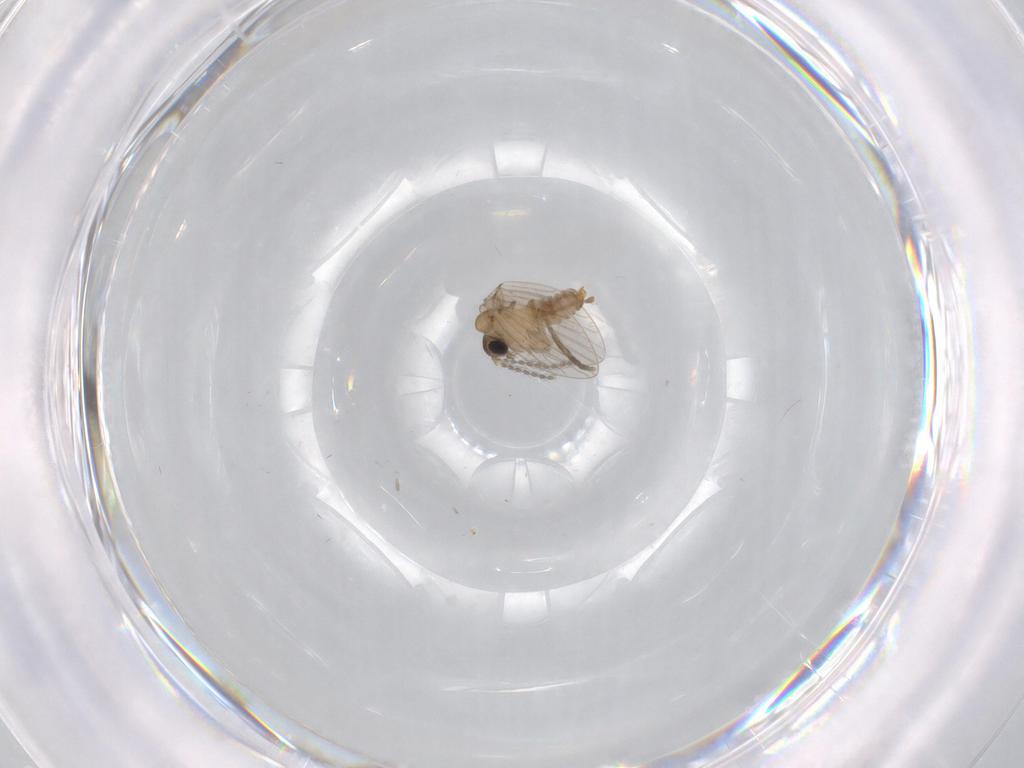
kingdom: Animalia
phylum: Arthropoda
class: Insecta
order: Diptera
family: Psychodidae
